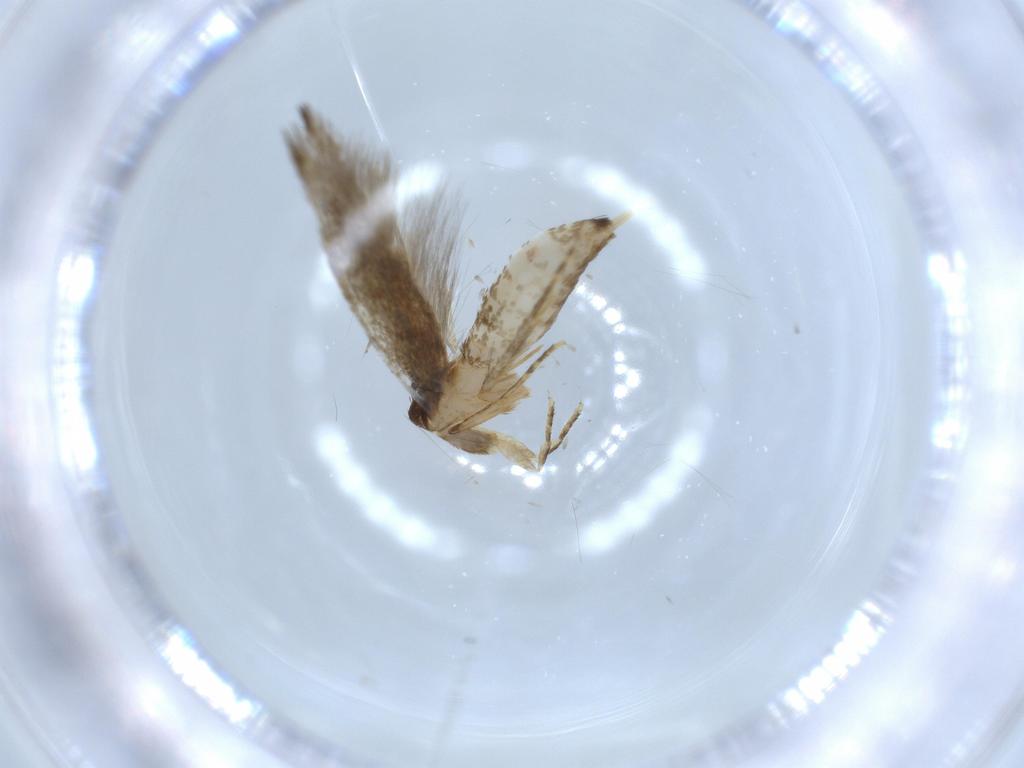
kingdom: Animalia
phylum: Arthropoda
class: Insecta
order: Lepidoptera
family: Tineidae
